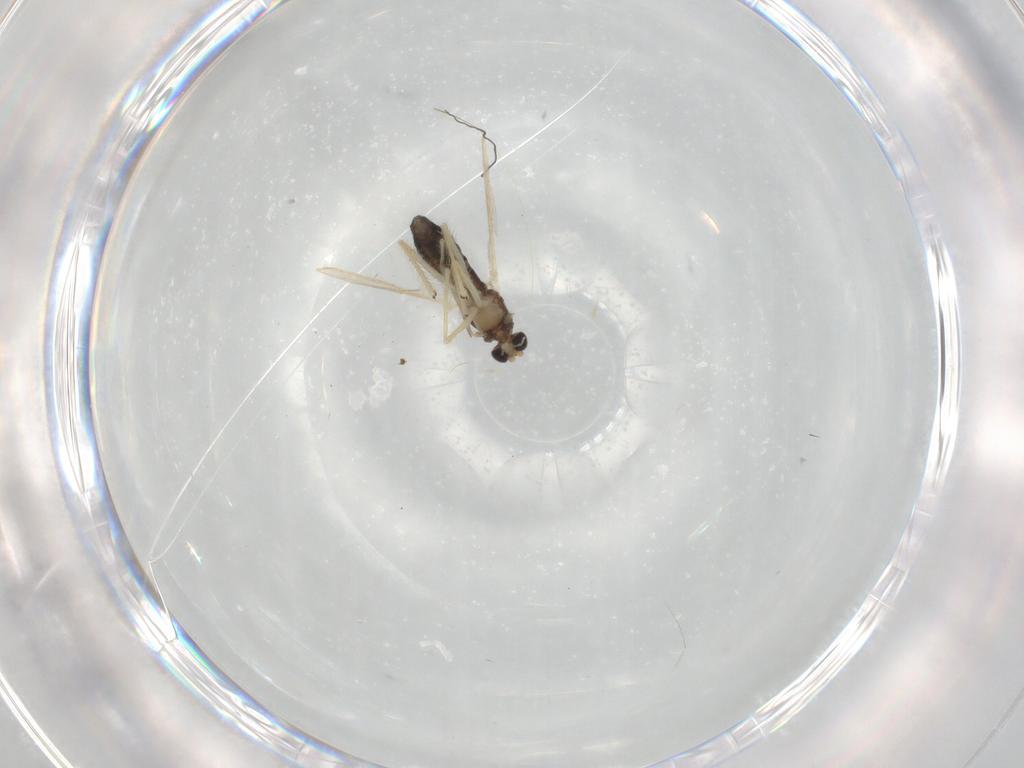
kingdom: Animalia
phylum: Arthropoda
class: Insecta
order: Diptera
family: Chironomidae
